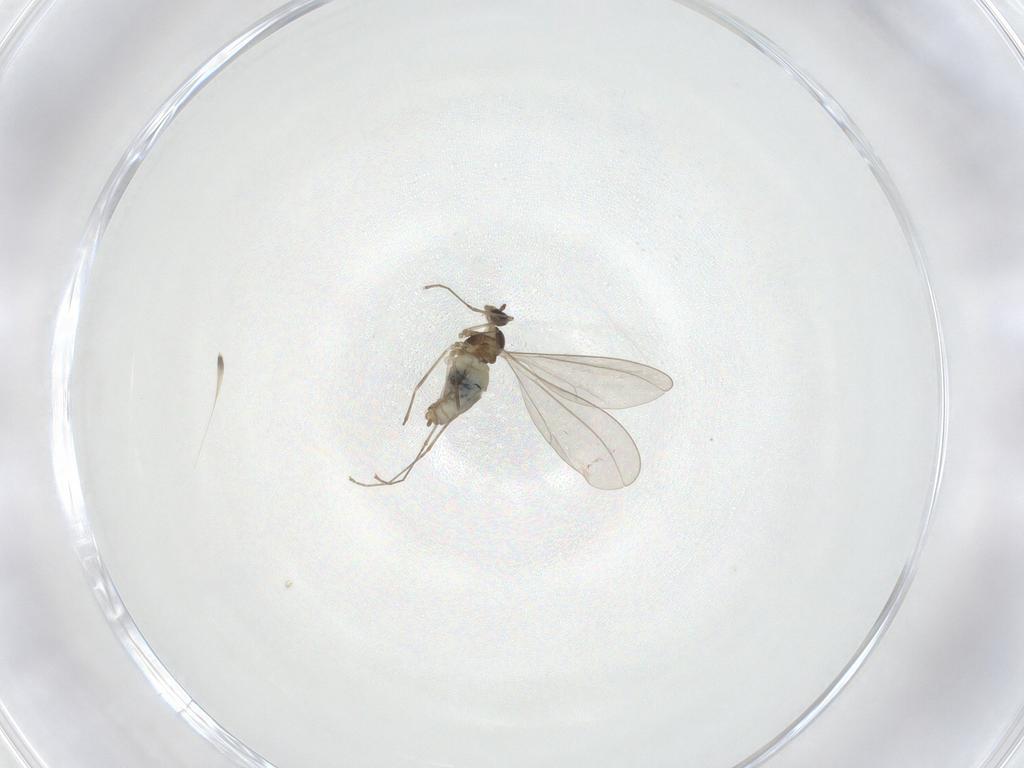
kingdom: Animalia
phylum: Arthropoda
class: Insecta
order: Diptera
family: Cecidomyiidae
